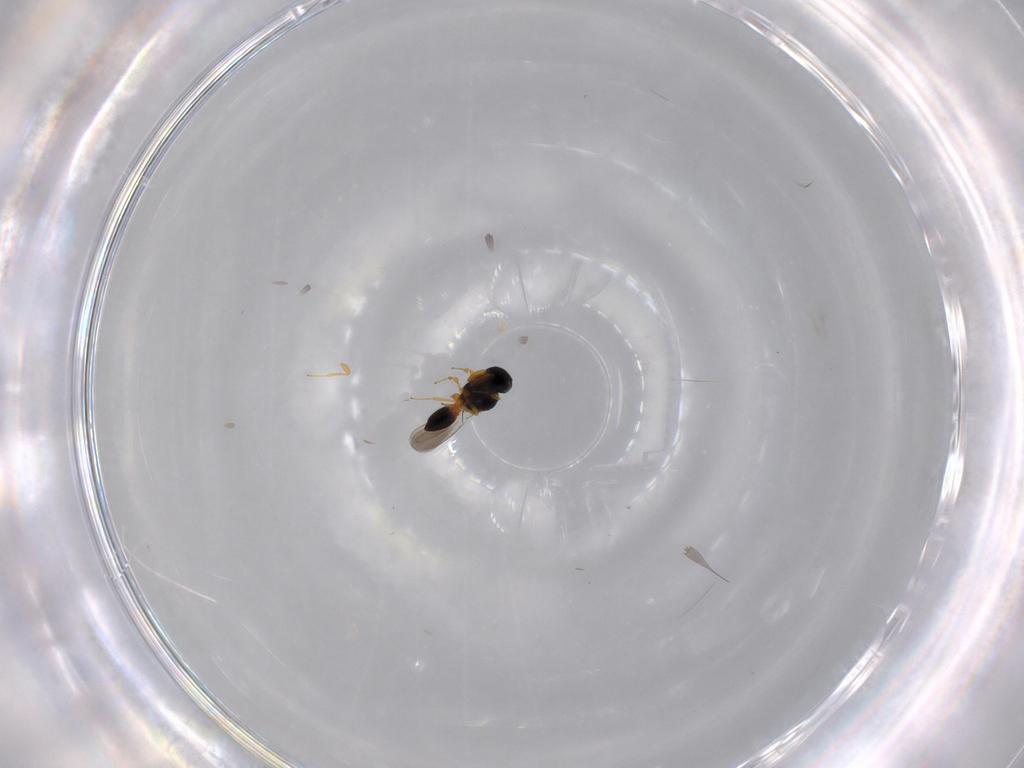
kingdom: Animalia
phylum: Arthropoda
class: Insecta
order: Hymenoptera
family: Platygastridae
